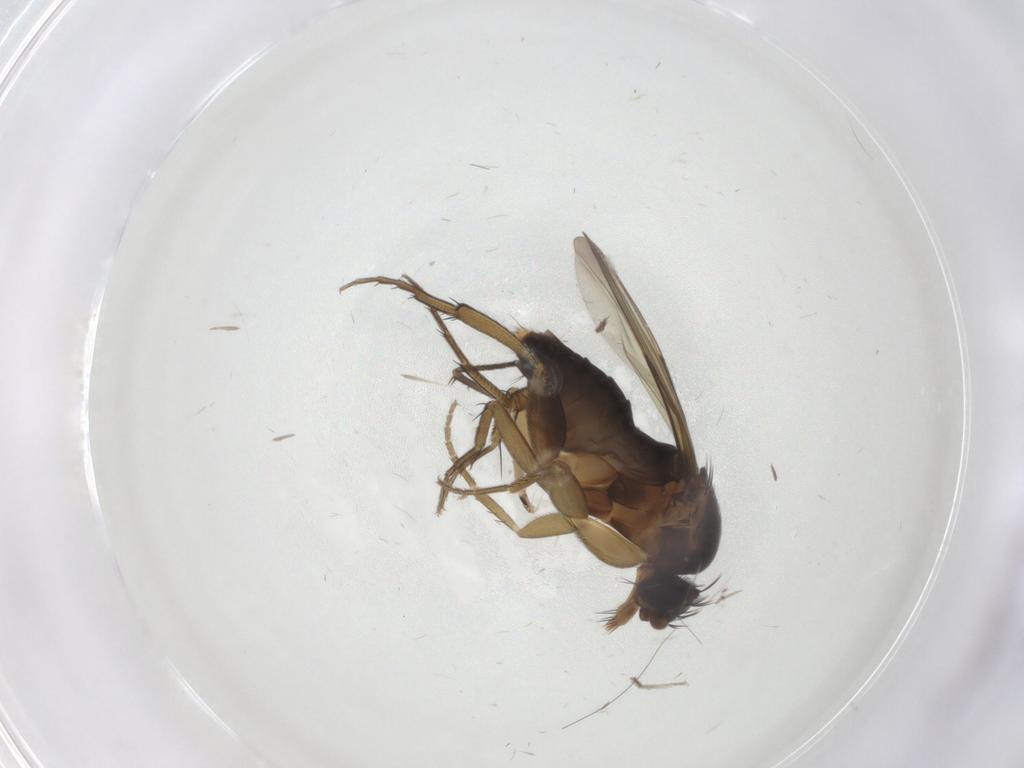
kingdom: Animalia
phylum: Arthropoda
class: Insecta
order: Diptera
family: Phoridae
